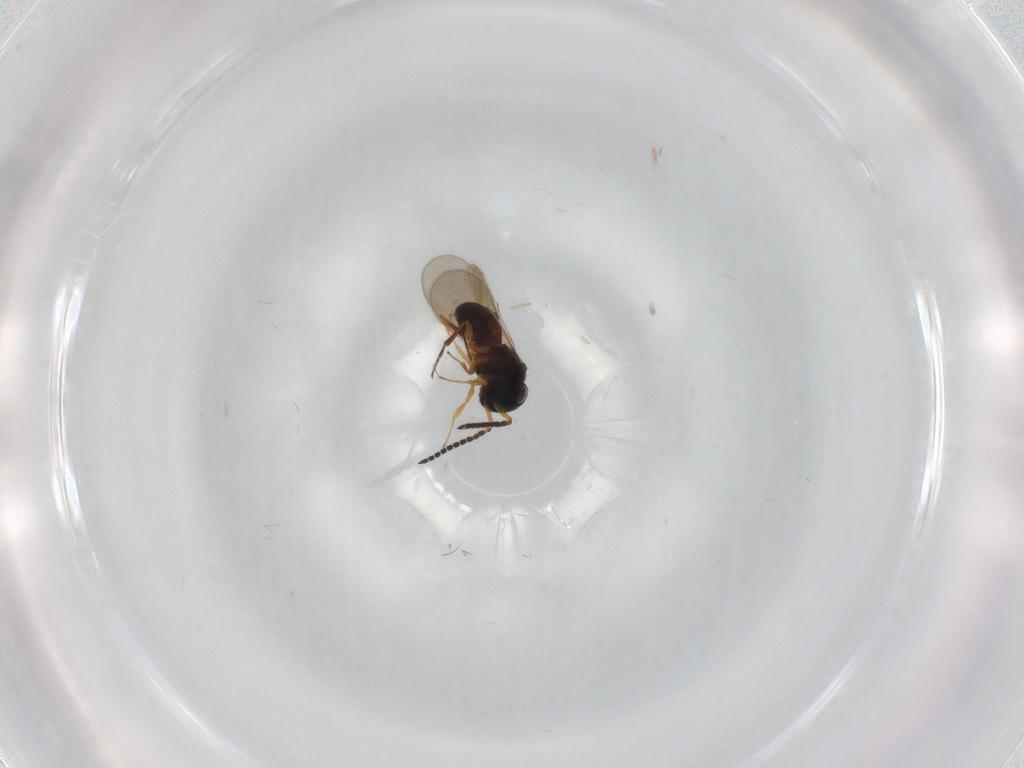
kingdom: Animalia
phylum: Arthropoda
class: Insecta
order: Hymenoptera
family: Scelionidae
